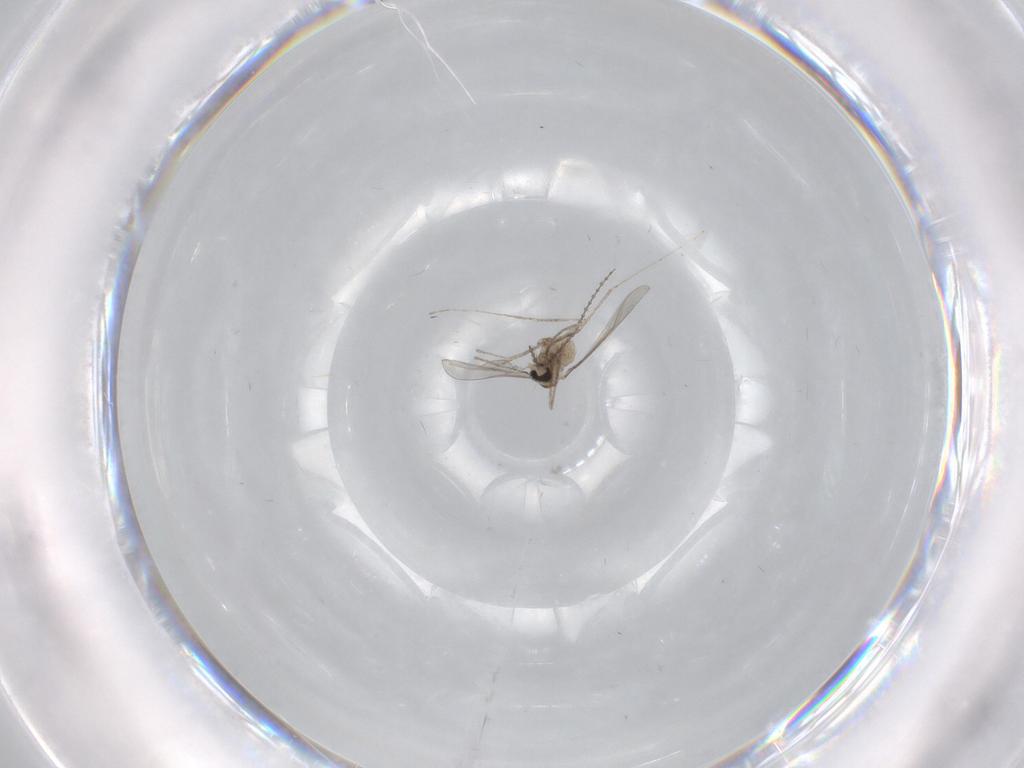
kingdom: Animalia
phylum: Arthropoda
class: Insecta
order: Diptera
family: Cecidomyiidae
